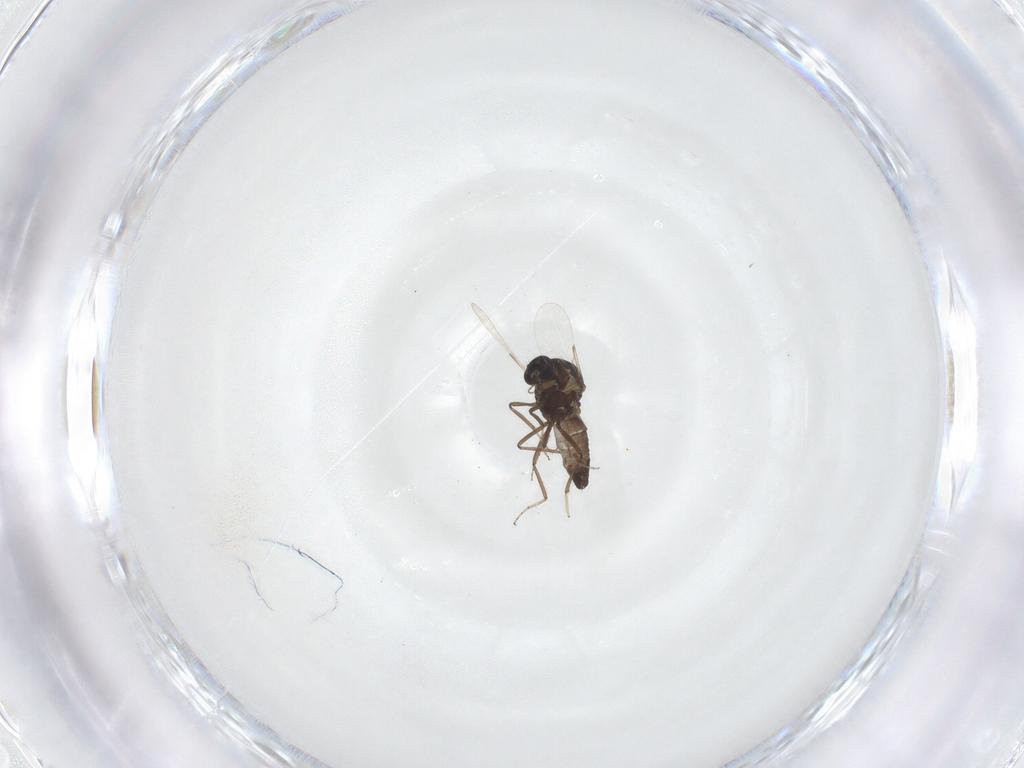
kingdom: Animalia
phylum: Arthropoda
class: Insecta
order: Diptera
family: Ceratopogonidae
